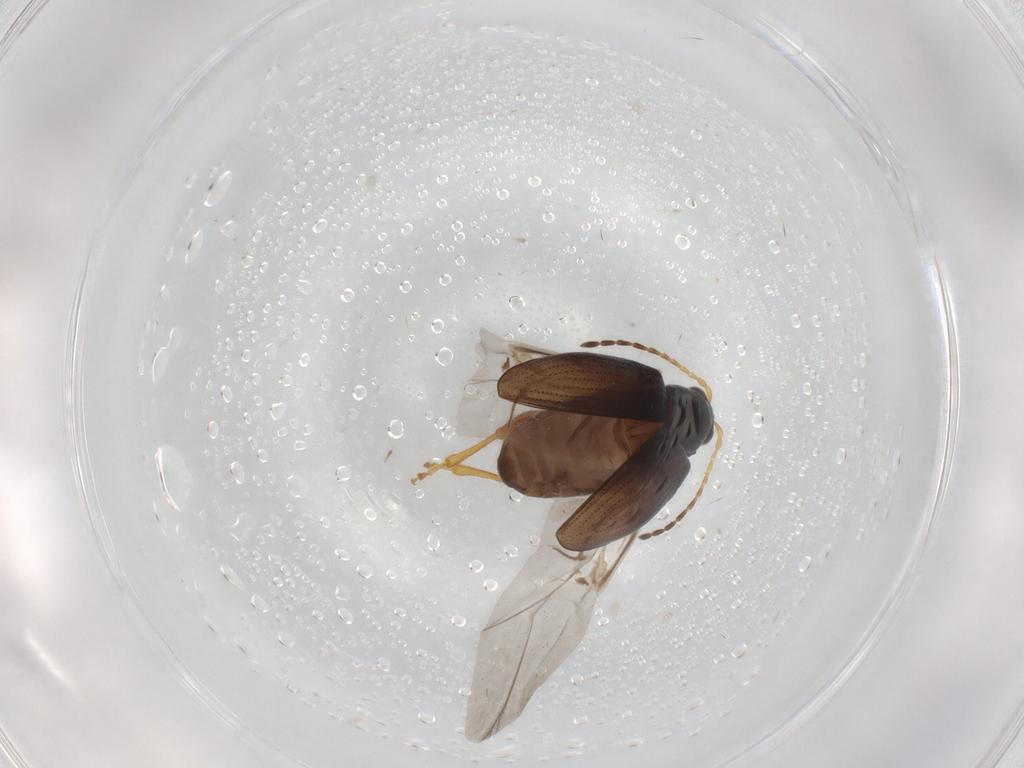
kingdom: Animalia
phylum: Arthropoda
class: Insecta
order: Coleoptera
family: Chrysomelidae
